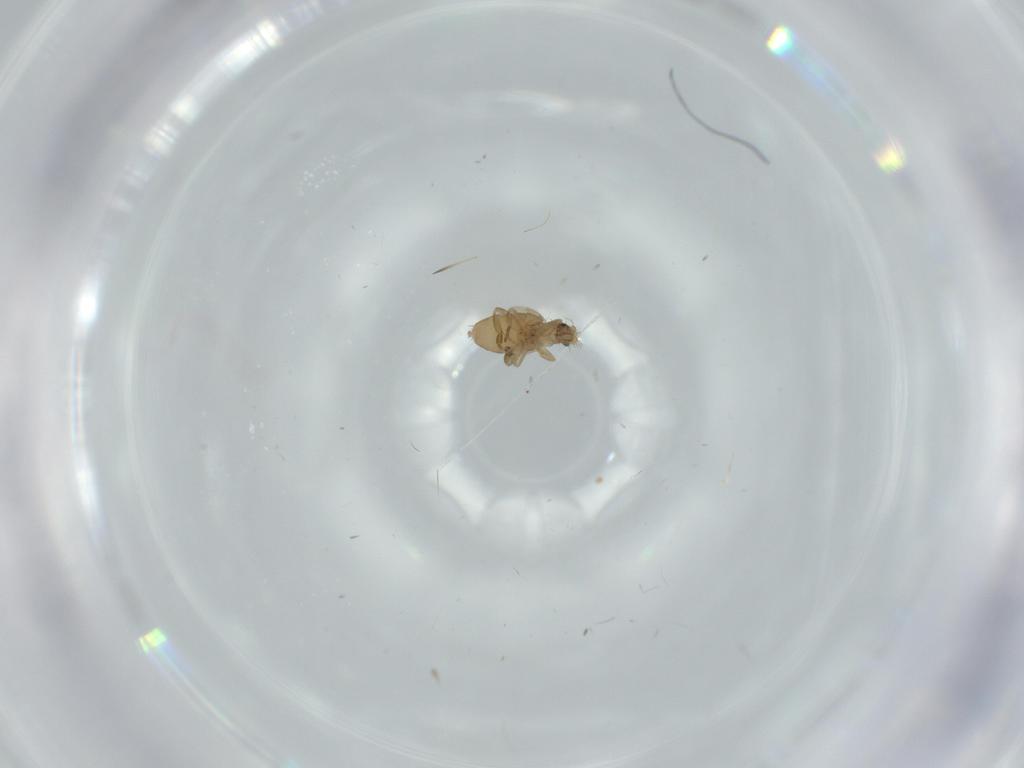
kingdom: Animalia
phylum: Arthropoda
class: Insecta
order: Diptera
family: Phoridae
